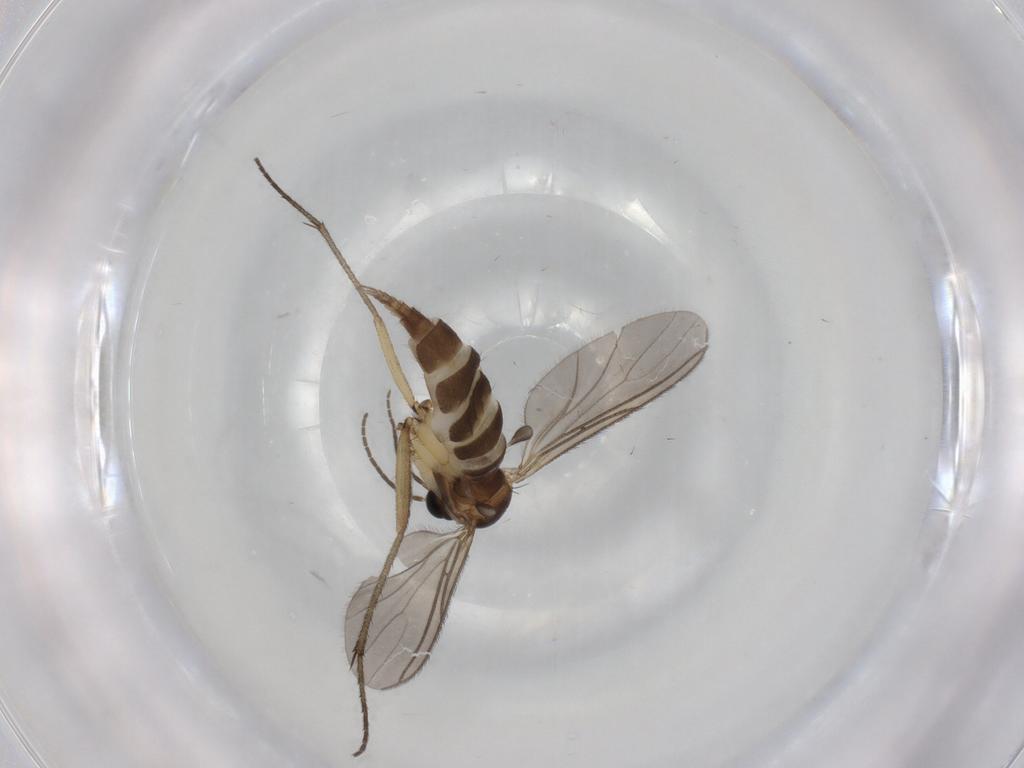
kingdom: Animalia
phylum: Arthropoda
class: Insecta
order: Diptera
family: Sciaridae
